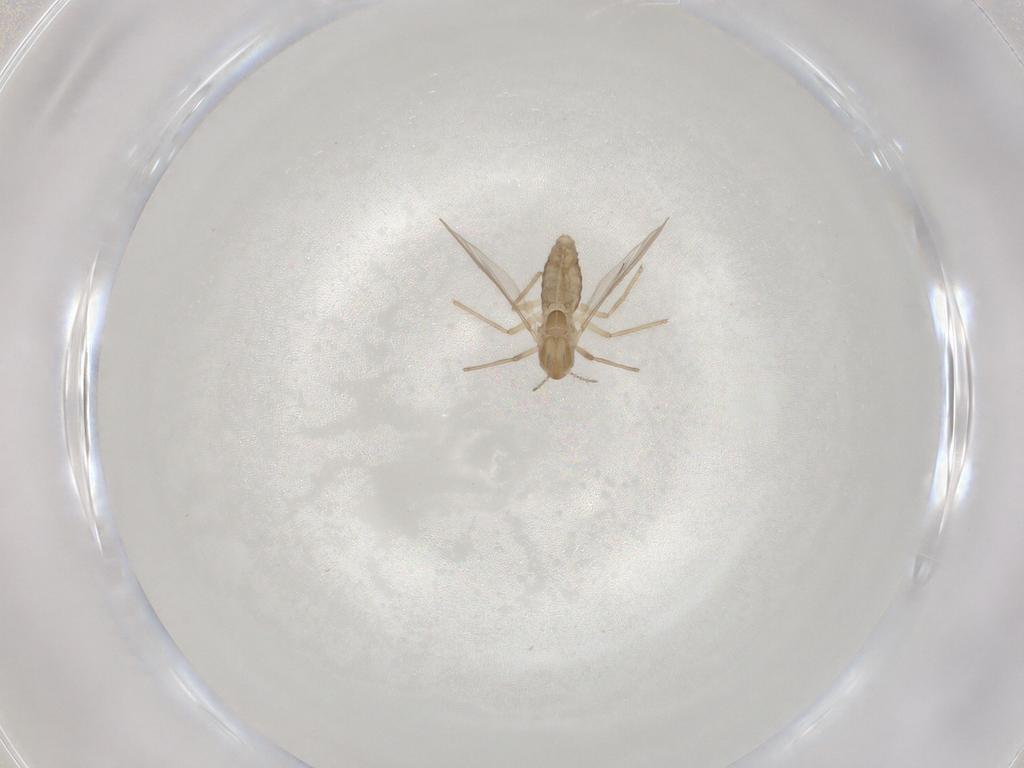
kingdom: Animalia
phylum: Arthropoda
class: Insecta
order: Diptera
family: Chironomidae
